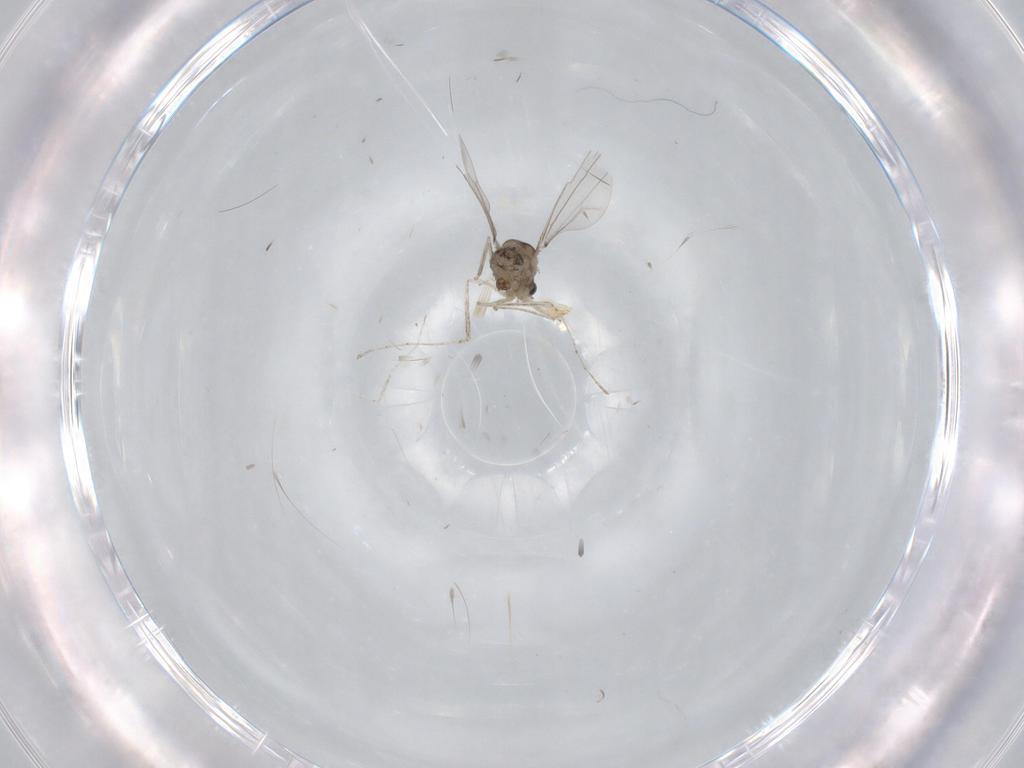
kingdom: Animalia
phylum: Arthropoda
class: Insecta
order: Diptera
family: Cecidomyiidae
